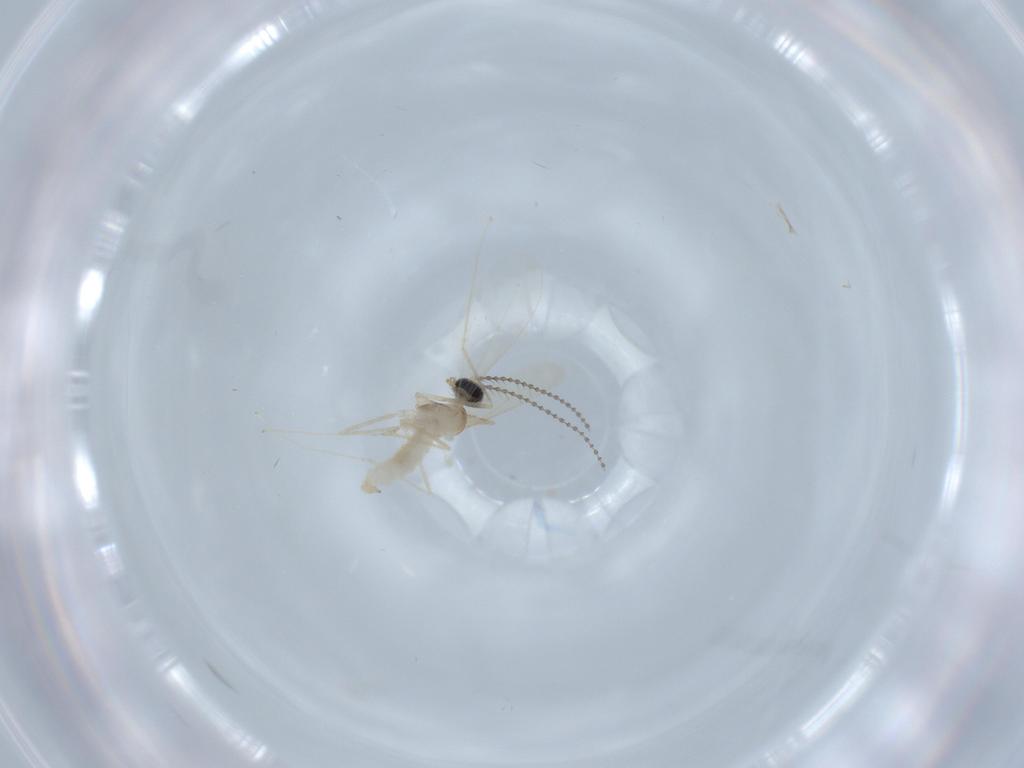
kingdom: Animalia
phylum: Arthropoda
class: Insecta
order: Diptera
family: Cecidomyiidae
